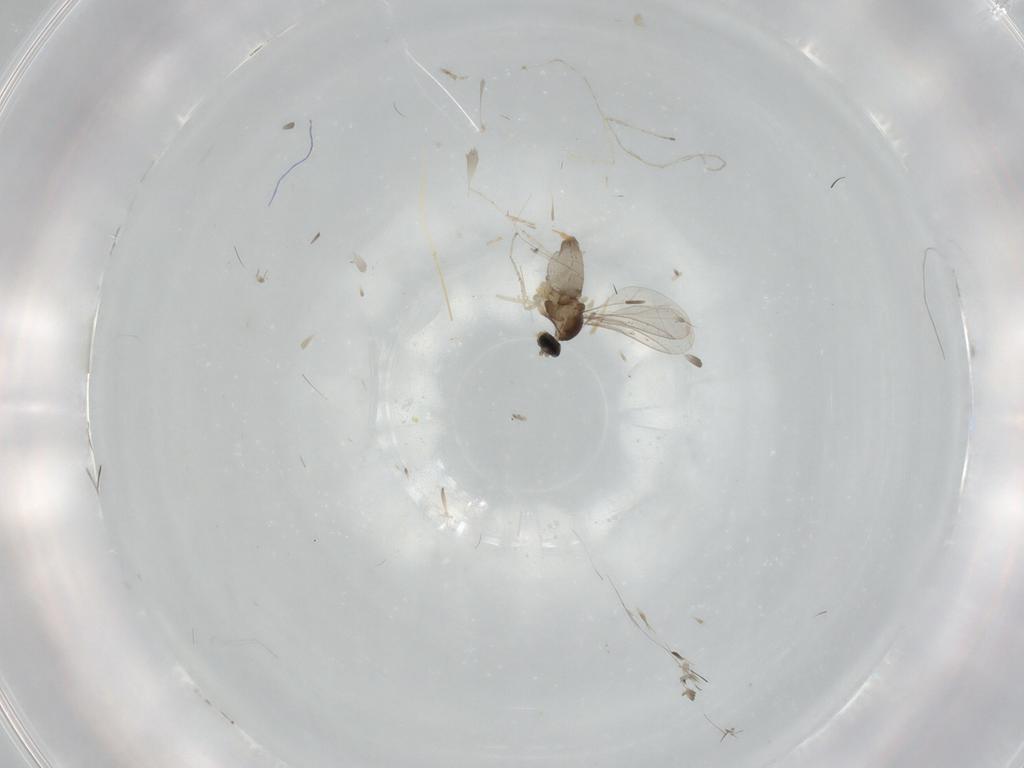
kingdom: Animalia
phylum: Arthropoda
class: Insecta
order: Diptera
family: Cecidomyiidae
